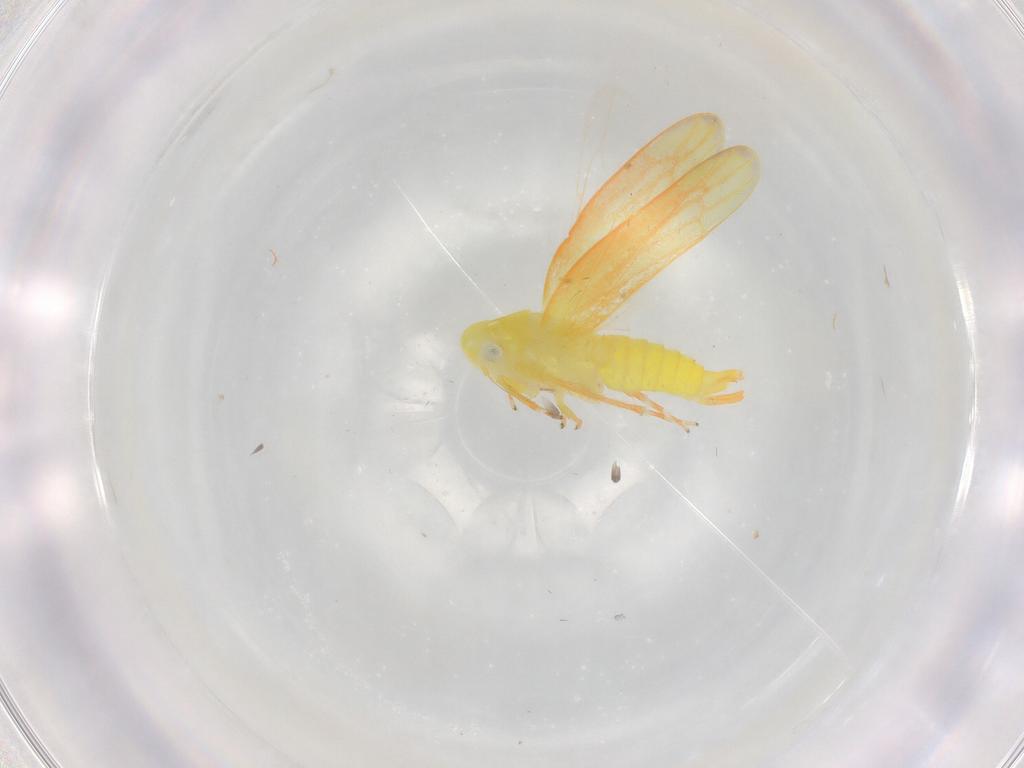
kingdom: Animalia
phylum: Arthropoda
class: Insecta
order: Hemiptera
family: Cicadellidae
